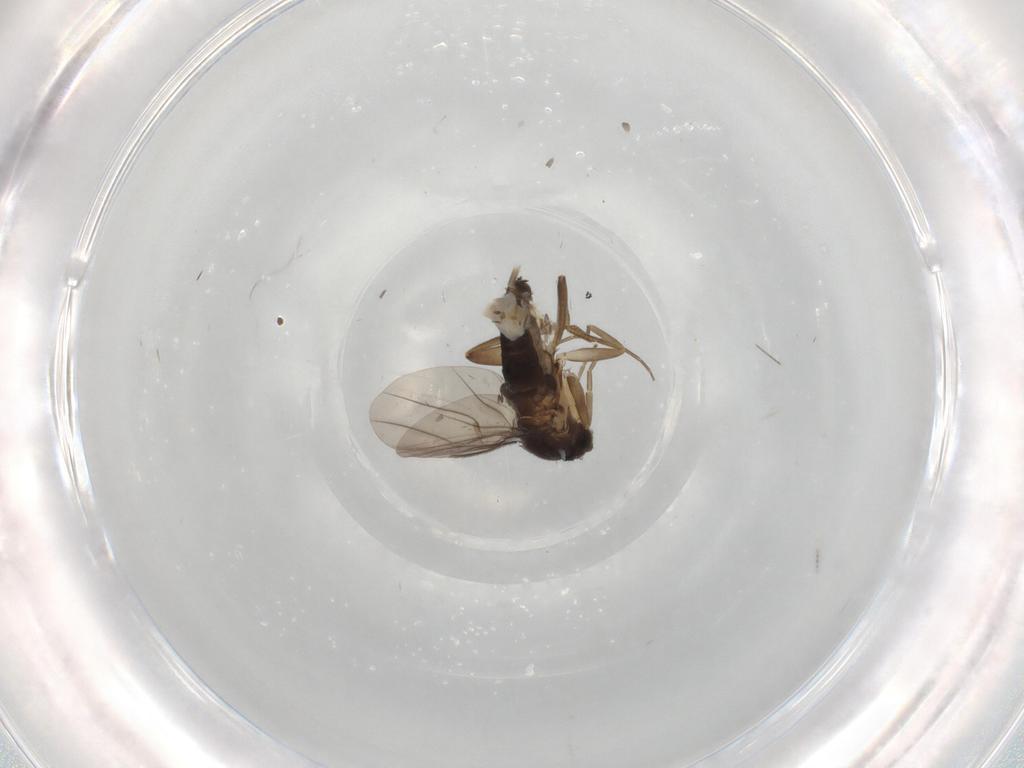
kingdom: Animalia
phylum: Arthropoda
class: Insecta
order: Diptera
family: Phoridae
